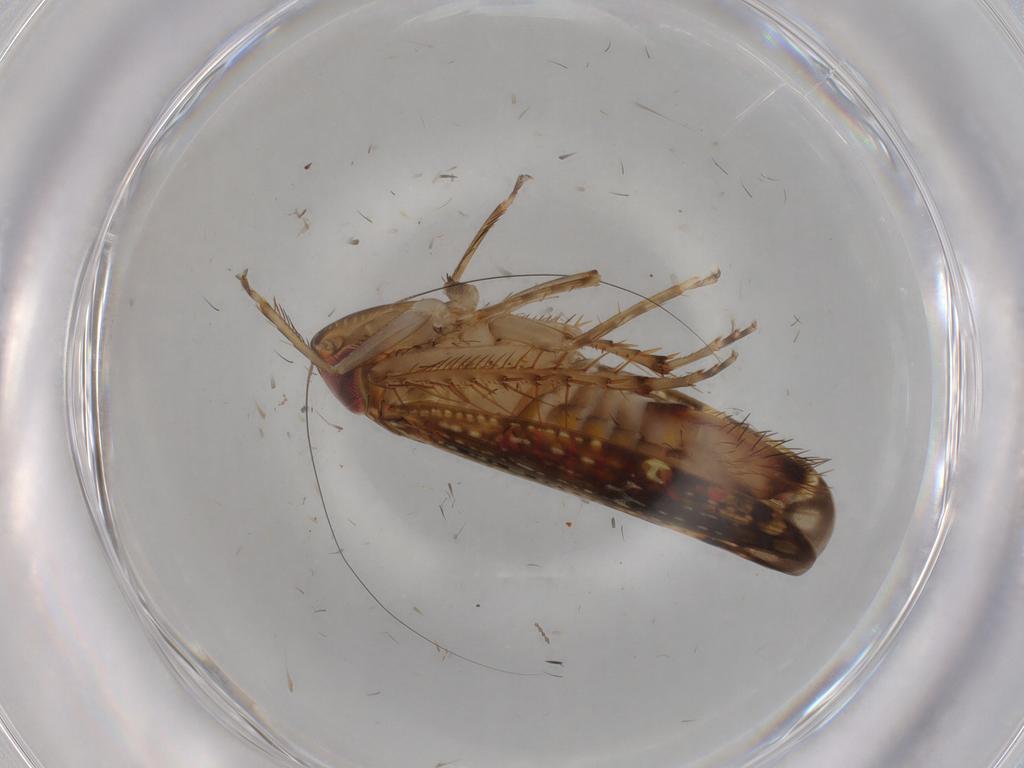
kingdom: Animalia
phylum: Arthropoda
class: Insecta
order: Hemiptera
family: Cicadellidae
